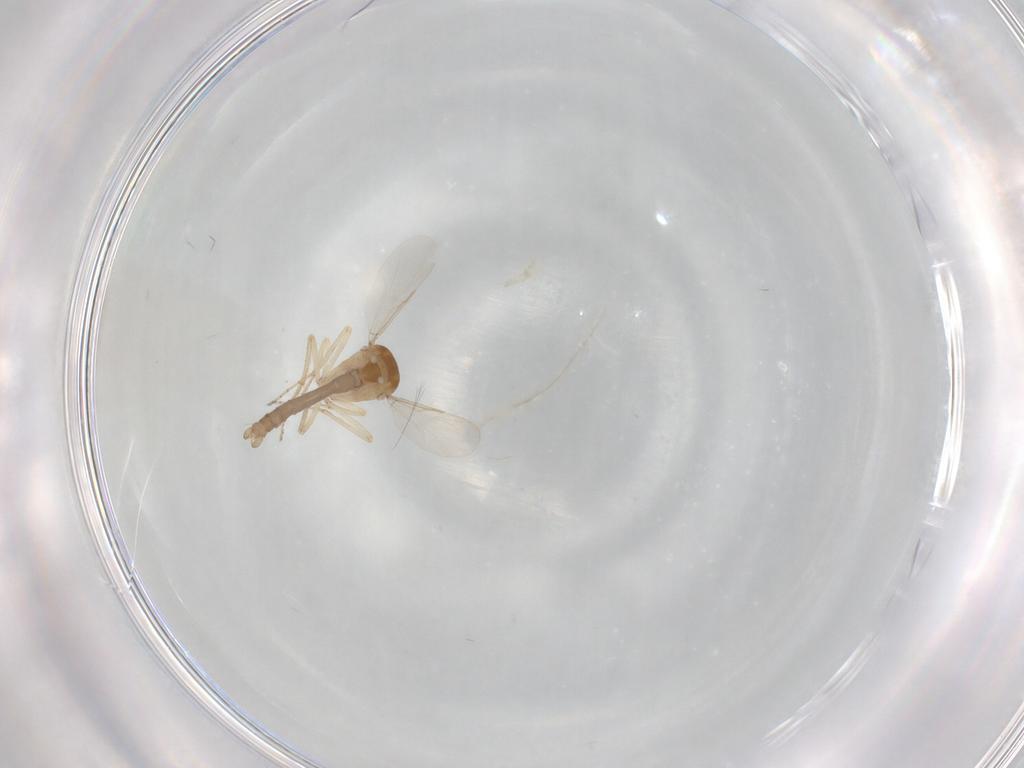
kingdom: Animalia
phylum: Arthropoda
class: Insecta
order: Diptera
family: Ceratopogonidae
